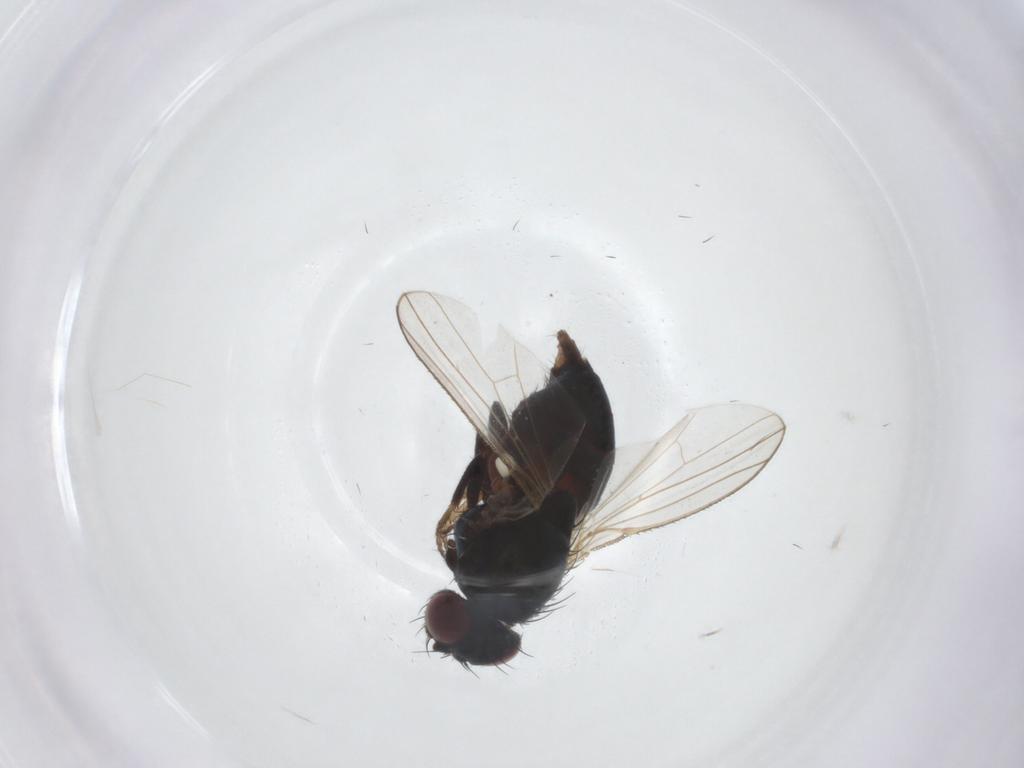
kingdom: Animalia
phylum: Arthropoda
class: Insecta
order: Diptera
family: Carnidae
